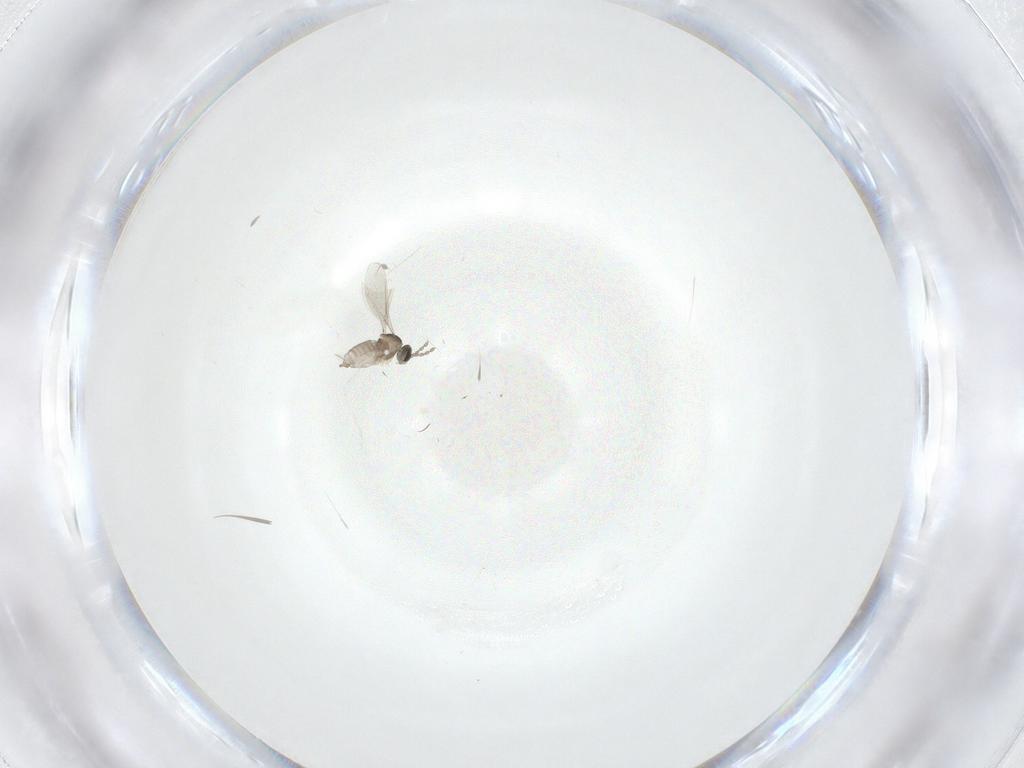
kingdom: Animalia
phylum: Arthropoda
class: Insecta
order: Diptera
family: Cecidomyiidae
